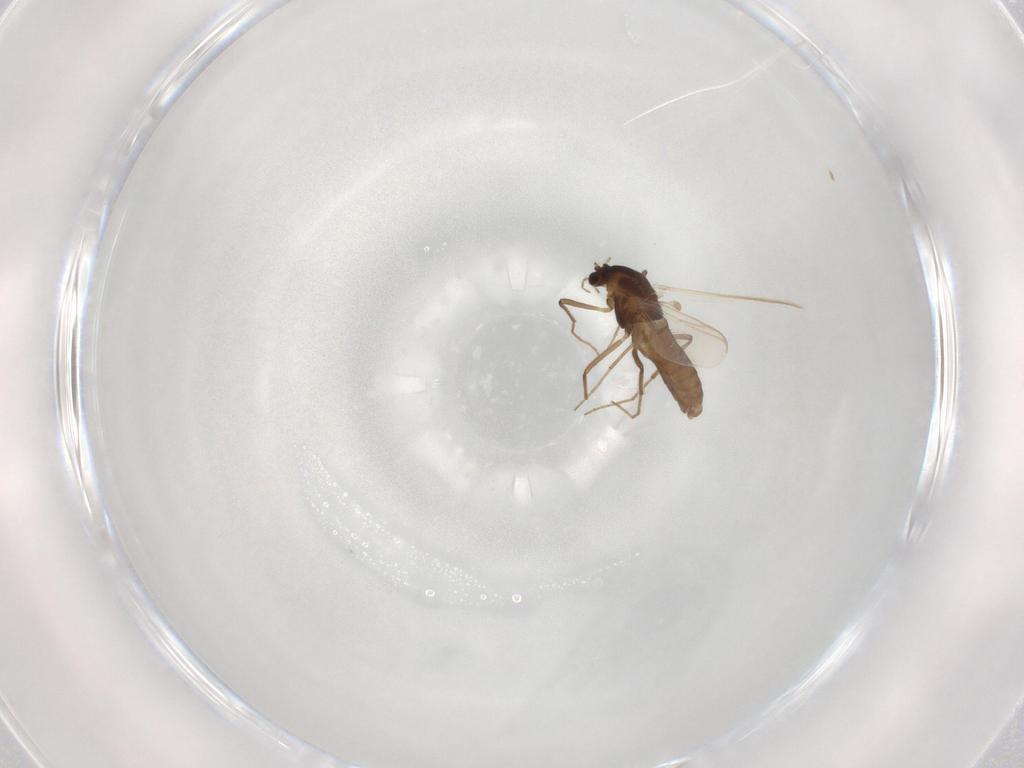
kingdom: Animalia
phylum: Arthropoda
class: Insecta
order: Diptera
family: Chironomidae
